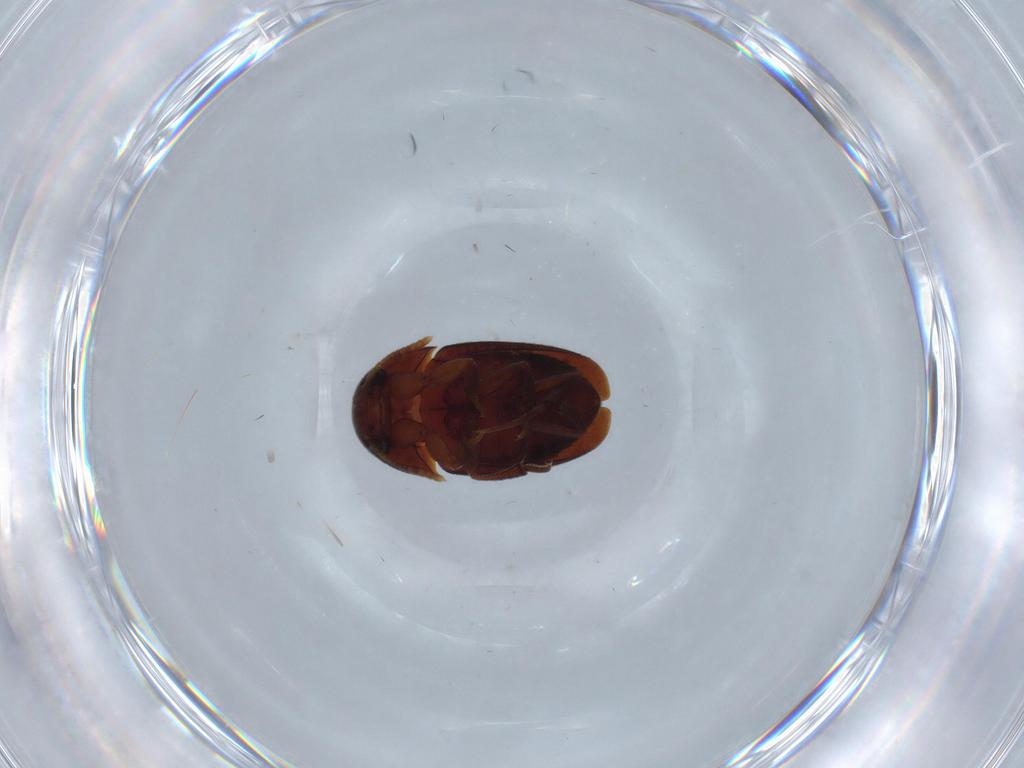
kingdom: Animalia
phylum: Arthropoda
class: Insecta
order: Coleoptera
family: Leiodidae
